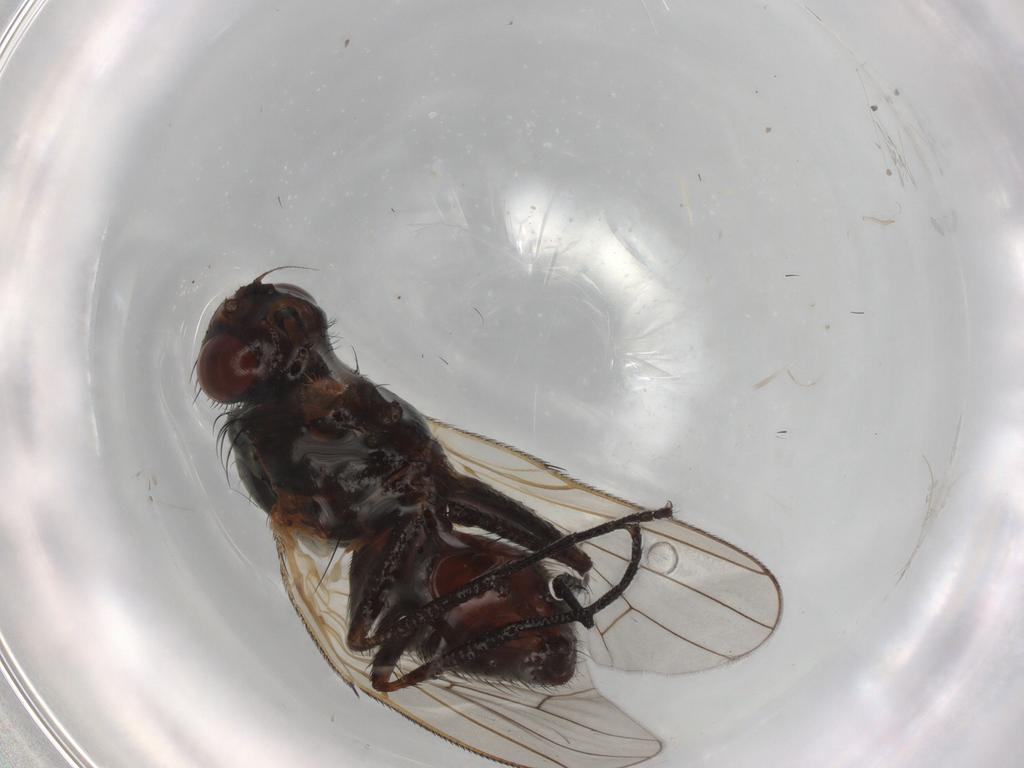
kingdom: Animalia
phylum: Arthropoda
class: Insecta
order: Diptera
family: Anthomyiidae
